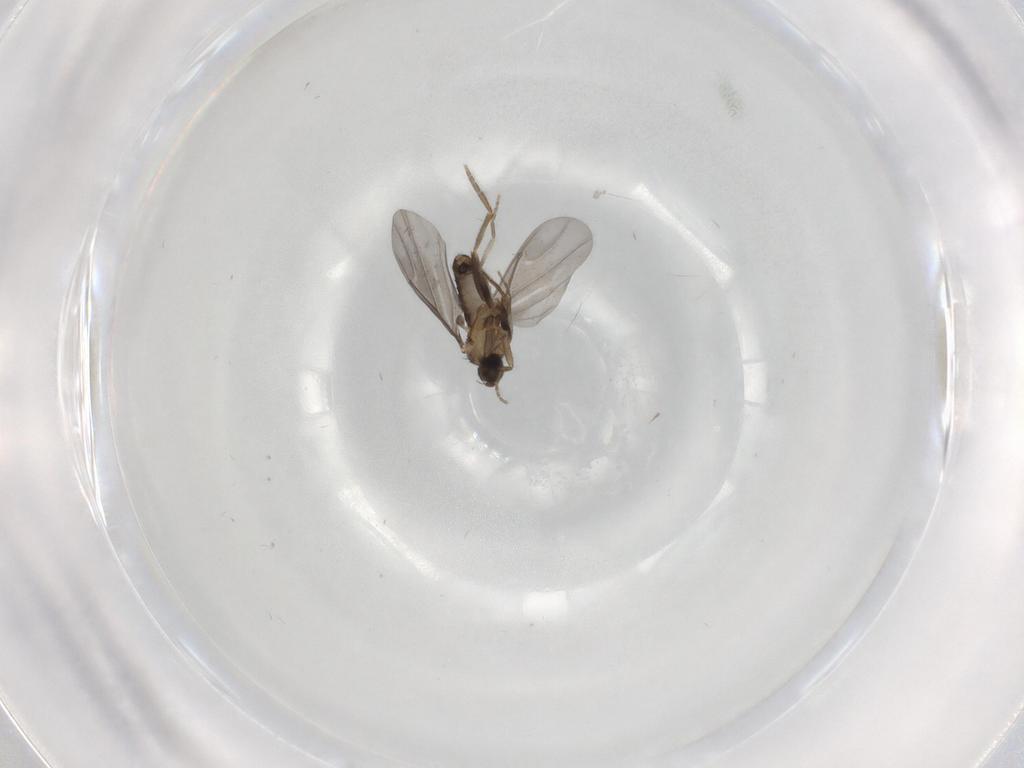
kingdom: Animalia
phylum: Arthropoda
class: Insecta
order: Diptera
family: Phoridae
